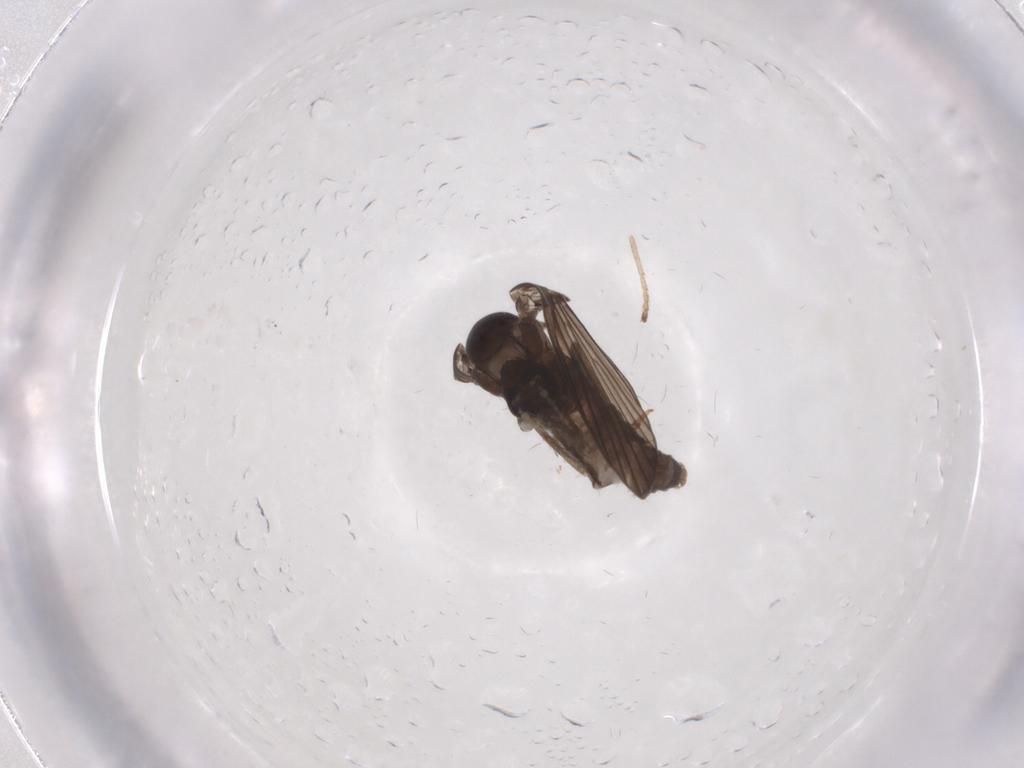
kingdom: Animalia
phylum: Arthropoda
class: Insecta
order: Diptera
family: Psychodidae
